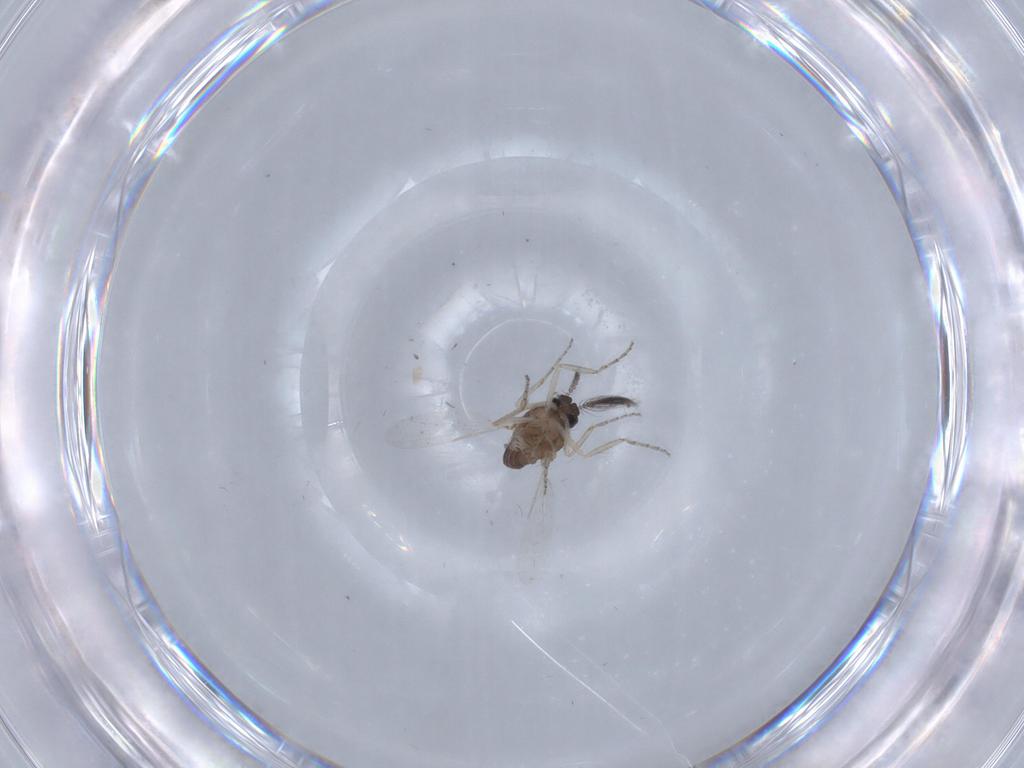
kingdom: Animalia
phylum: Arthropoda
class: Insecta
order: Diptera
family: Ceratopogonidae
